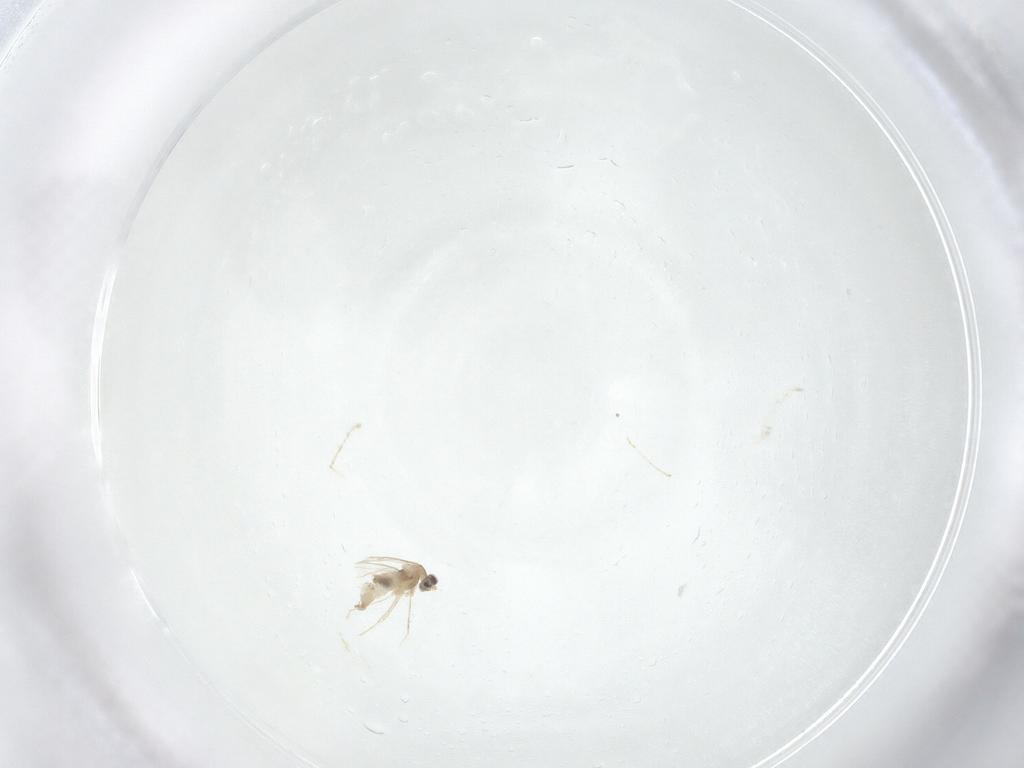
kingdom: Animalia
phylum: Arthropoda
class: Insecta
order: Diptera
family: Cecidomyiidae
